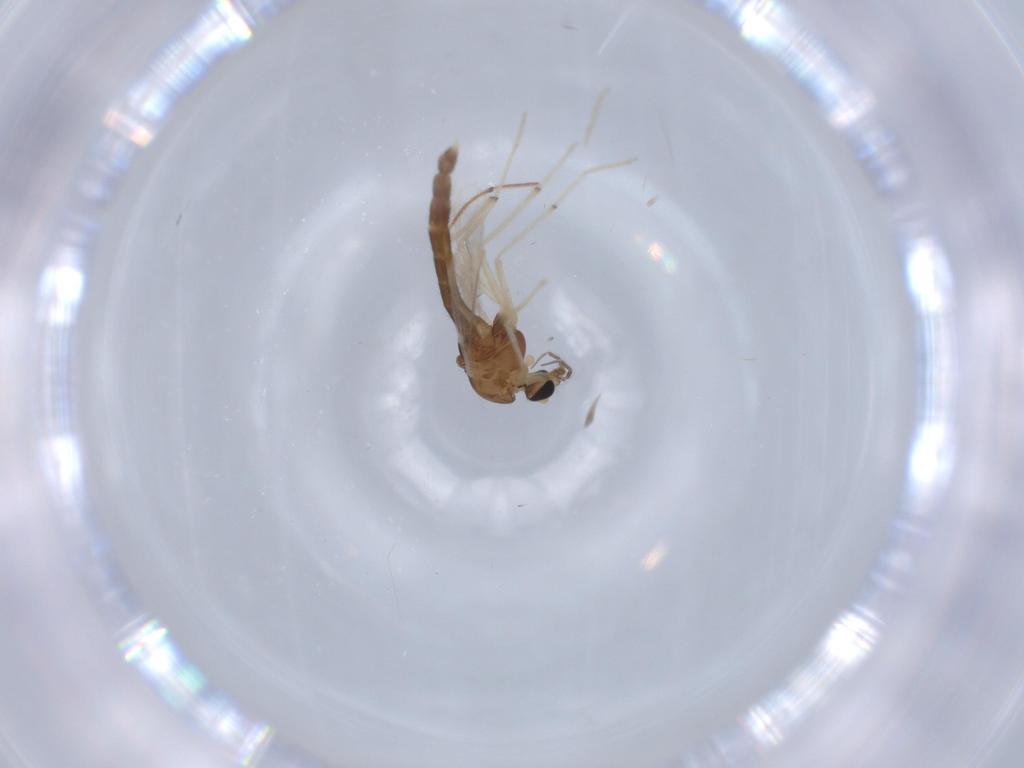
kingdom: Animalia
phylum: Arthropoda
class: Insecta
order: Diptera
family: Chironomidae
